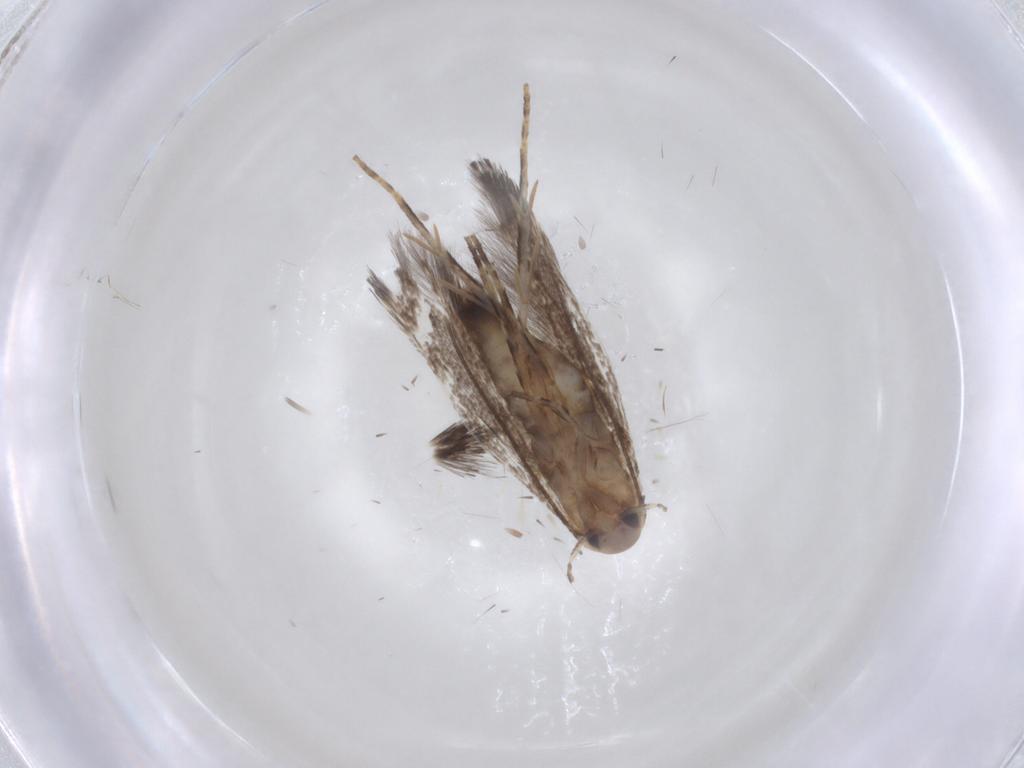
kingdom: Animalia
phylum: Arthropoda
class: Insecta
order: Lepidoptera
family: Elachistidae
